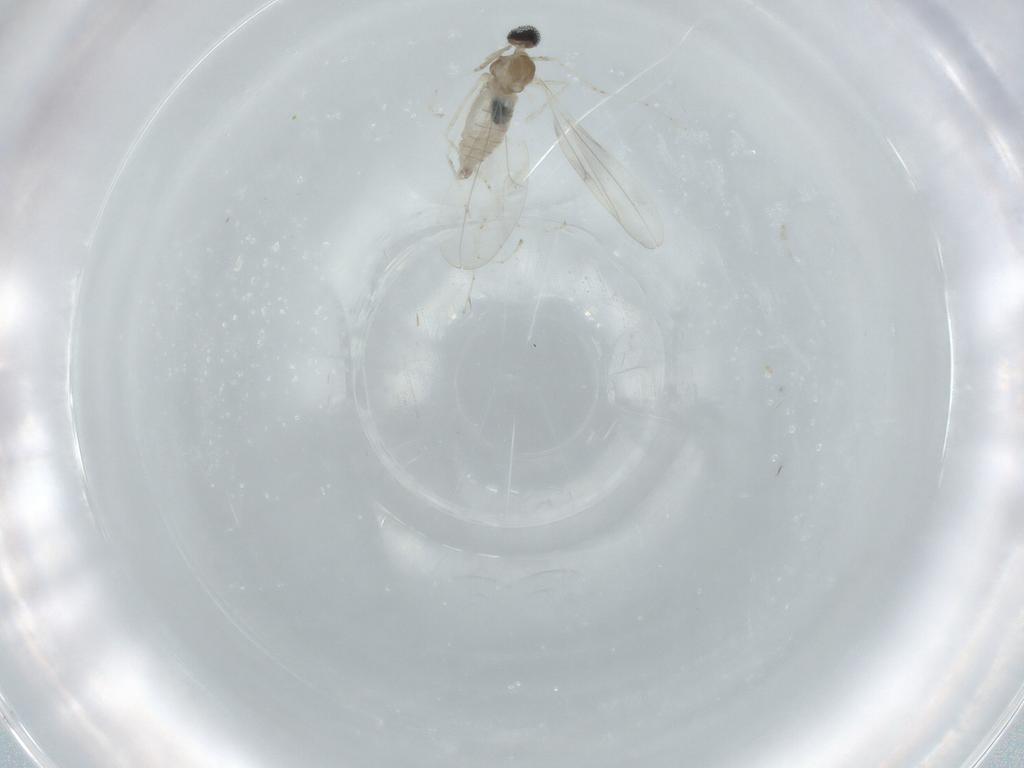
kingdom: Animalia
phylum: Arthropoda
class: Insecta
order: Diptera
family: Cecidomyiidae
